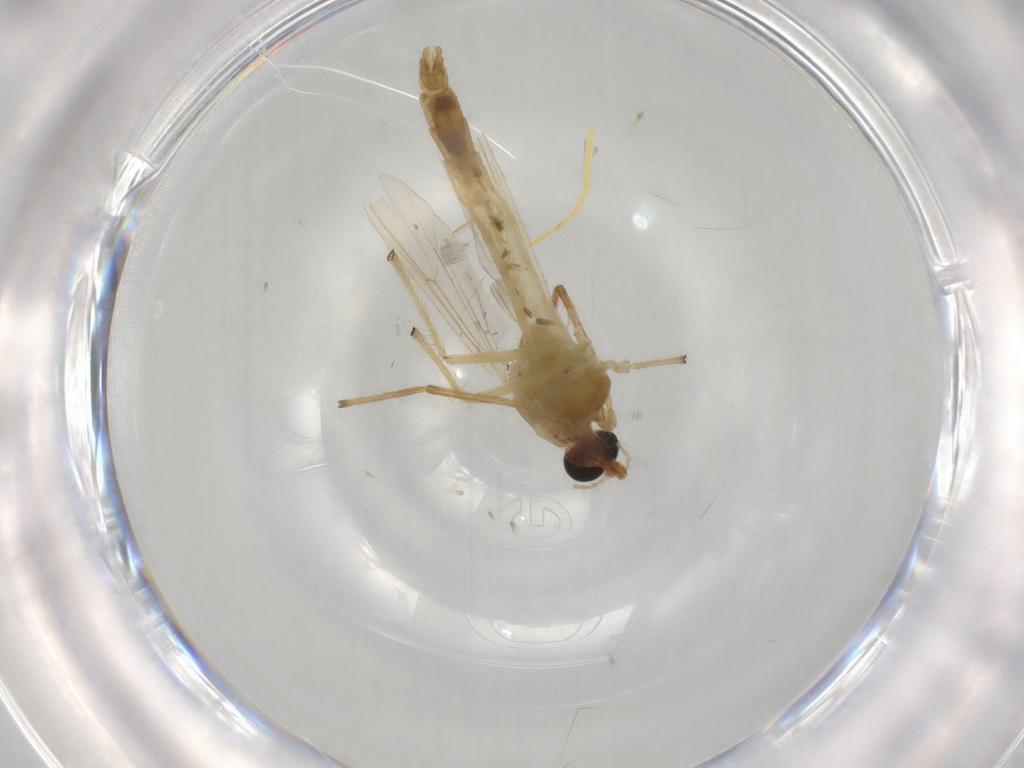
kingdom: Animalia
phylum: Arthropoda
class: Insecta
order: Diptera
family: Chironomidae
